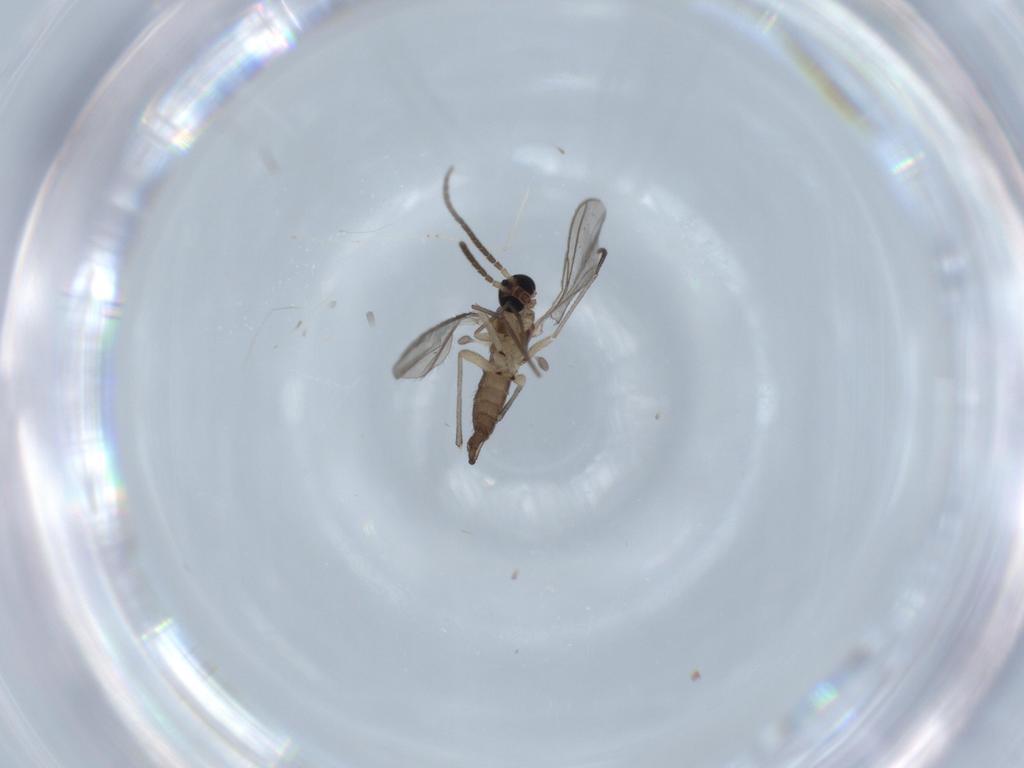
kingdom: Animalia
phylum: Arthropoda
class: Insecta
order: Diptera
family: Sciaridae
